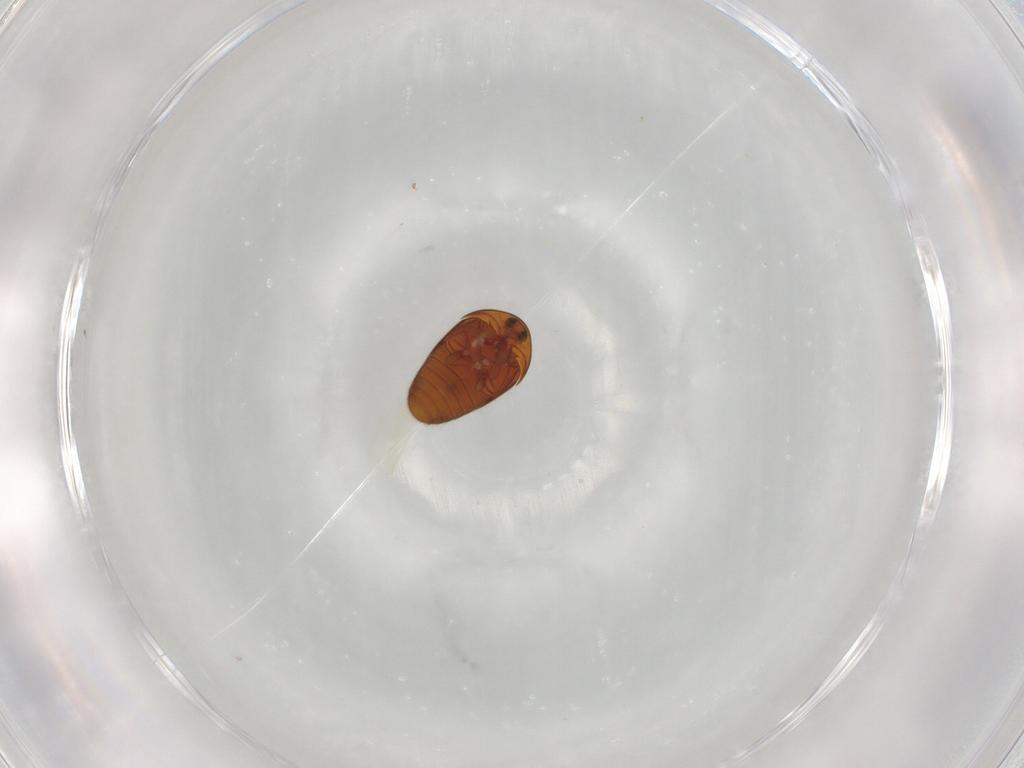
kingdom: Animalia
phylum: Arthropoda
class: Insecta
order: Coleoptera
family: Corylophidae
